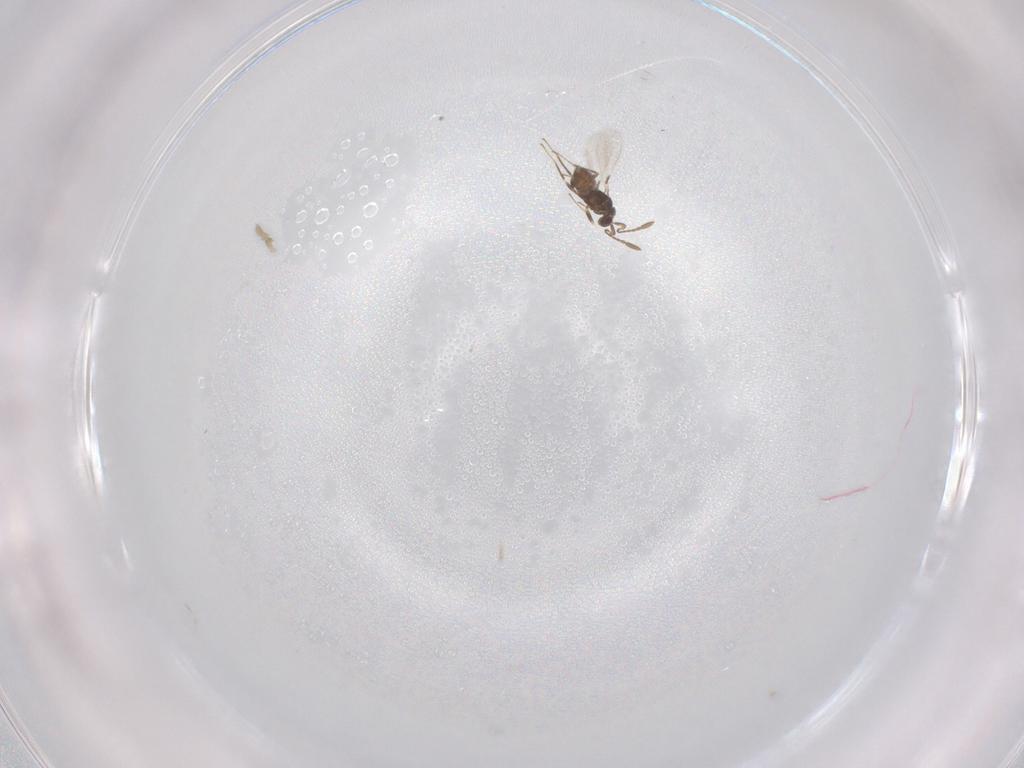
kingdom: Animalia
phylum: Arthropoda
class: Insecta
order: Hymenoptera
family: Mymaridae
